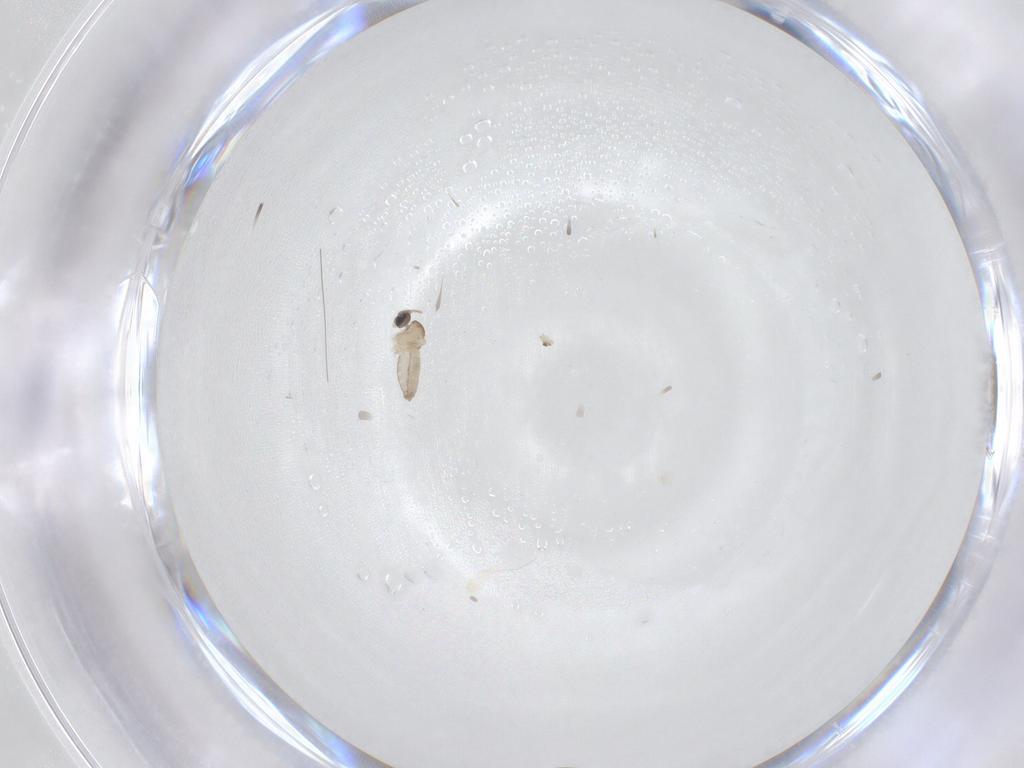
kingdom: Animalia
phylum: Arthropoda
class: Insecta
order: Diptera
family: Cecidomyiidae
